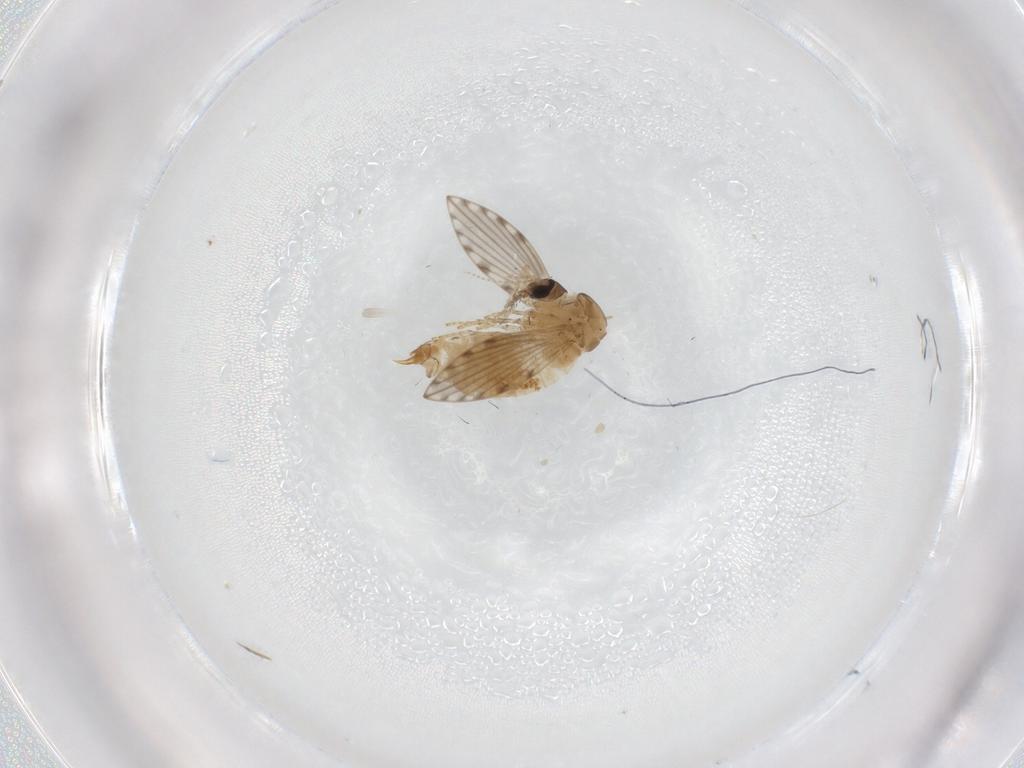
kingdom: Animalia
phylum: Arthropoda
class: Insecta
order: Diptera
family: Psychodidae
